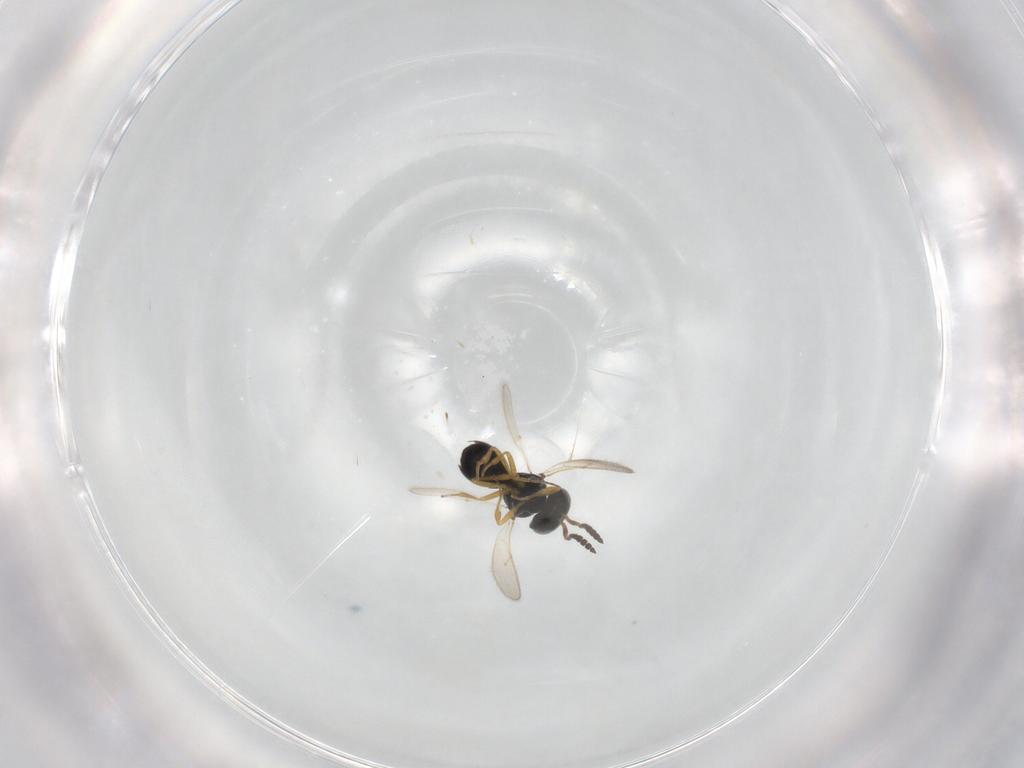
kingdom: Animalia
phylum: Arthropoda
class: Insecta
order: Hymenoptera
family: Scelionidae
